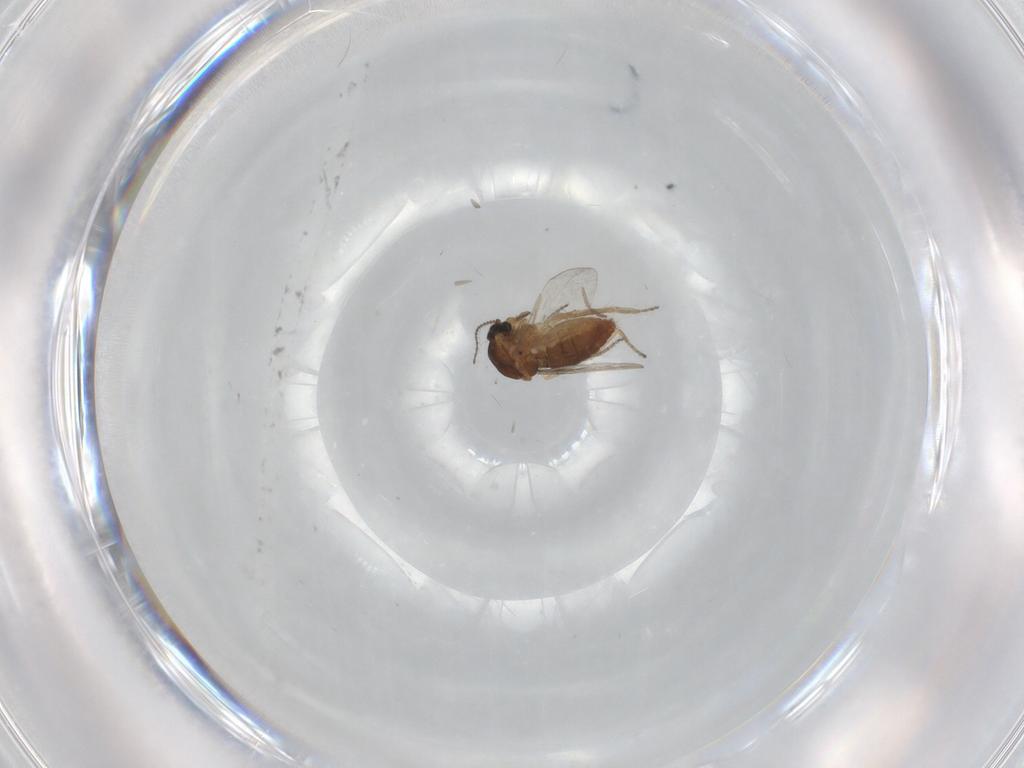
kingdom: Animalia
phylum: Arthropoda
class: Insecta
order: Diptera
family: Ceratopogonidae
